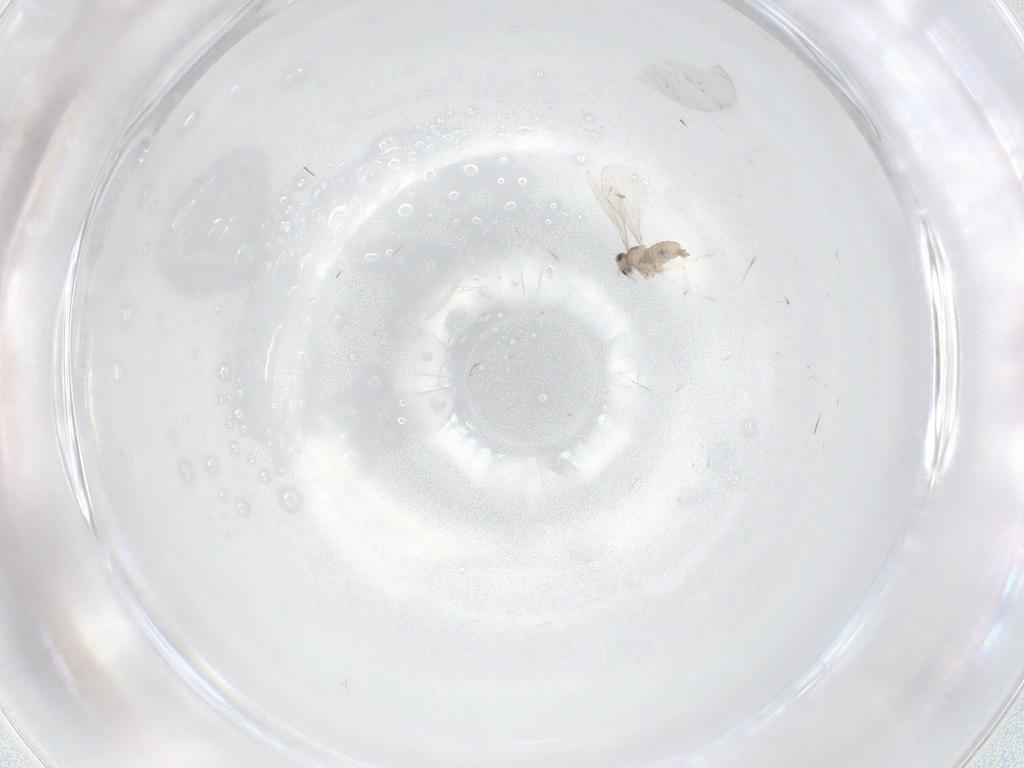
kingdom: Animalia
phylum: Arthropoda
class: Insecta
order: Diptera
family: Cecidomyiidae
